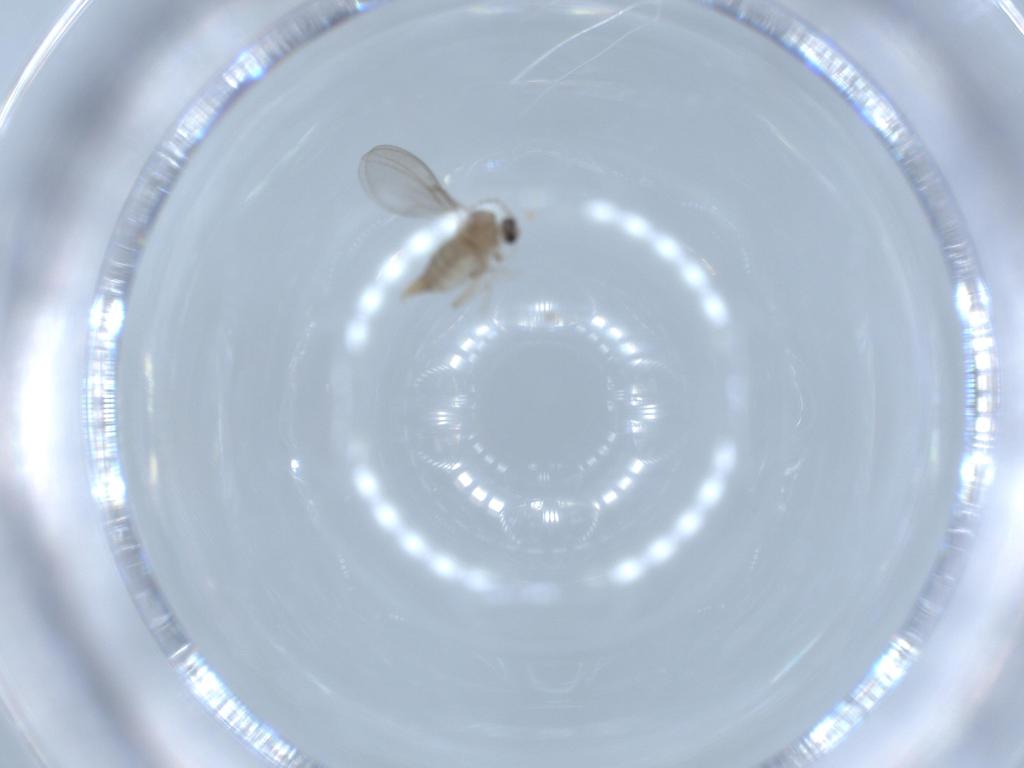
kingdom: Animalia
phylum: Arthropoda
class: Insecta
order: Diptera
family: Cecidomyiidae
